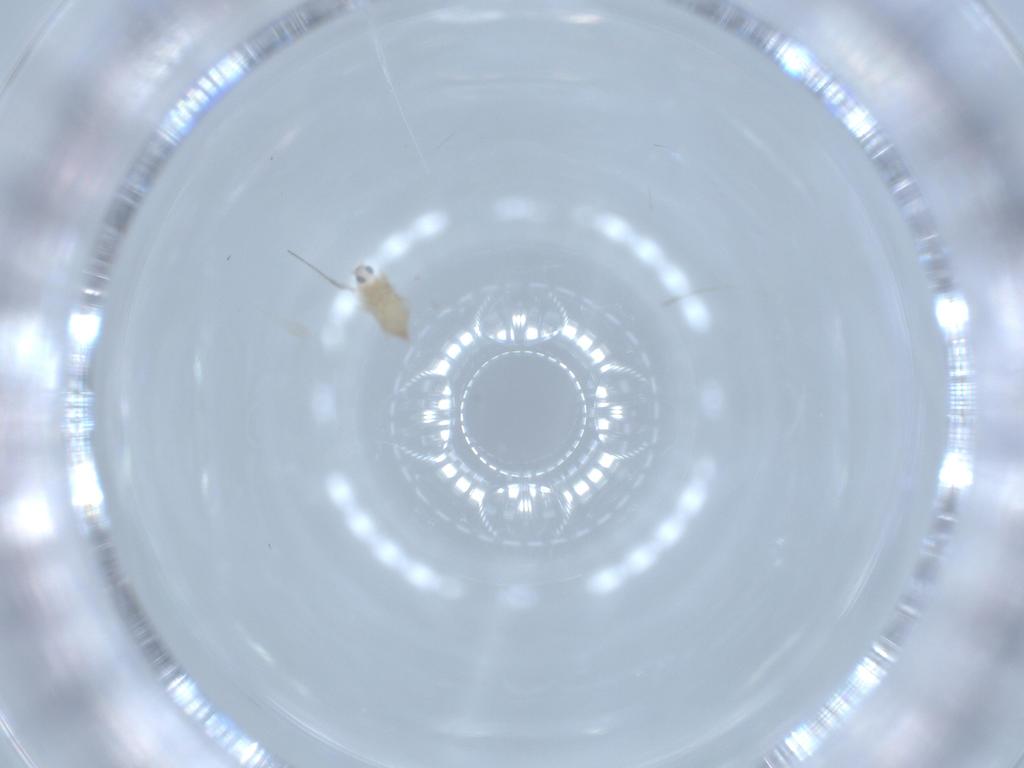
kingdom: Animalia
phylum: Arthropoda
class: Insecta
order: Diptera
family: Cecidomyiidae
